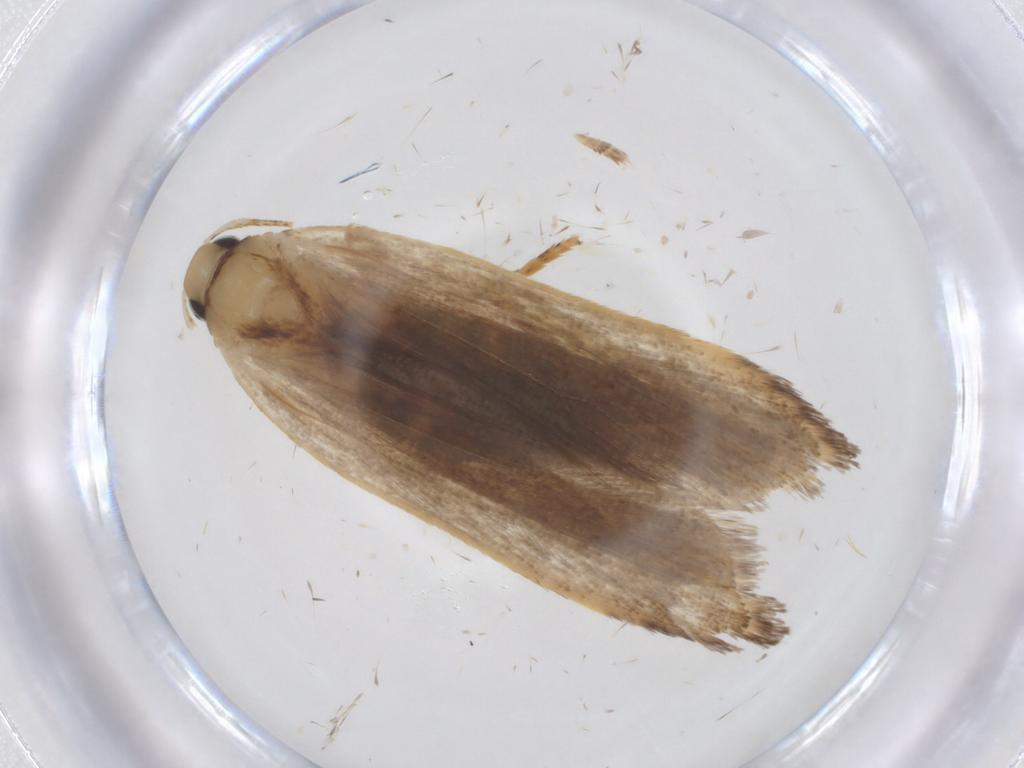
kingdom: Animalia
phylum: Arthropoda
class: Insecta
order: Lepidoptera
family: Gelechiidae
